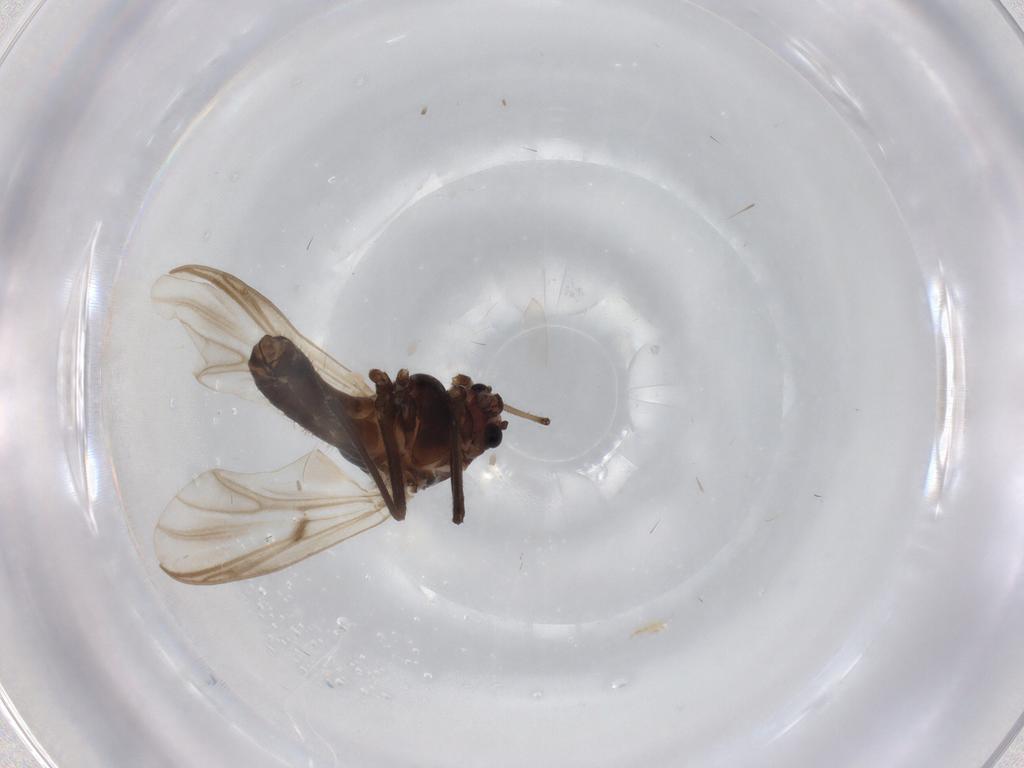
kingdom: Animalia
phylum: Arthropoda
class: Insecta
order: Diptera
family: Chironomidae
